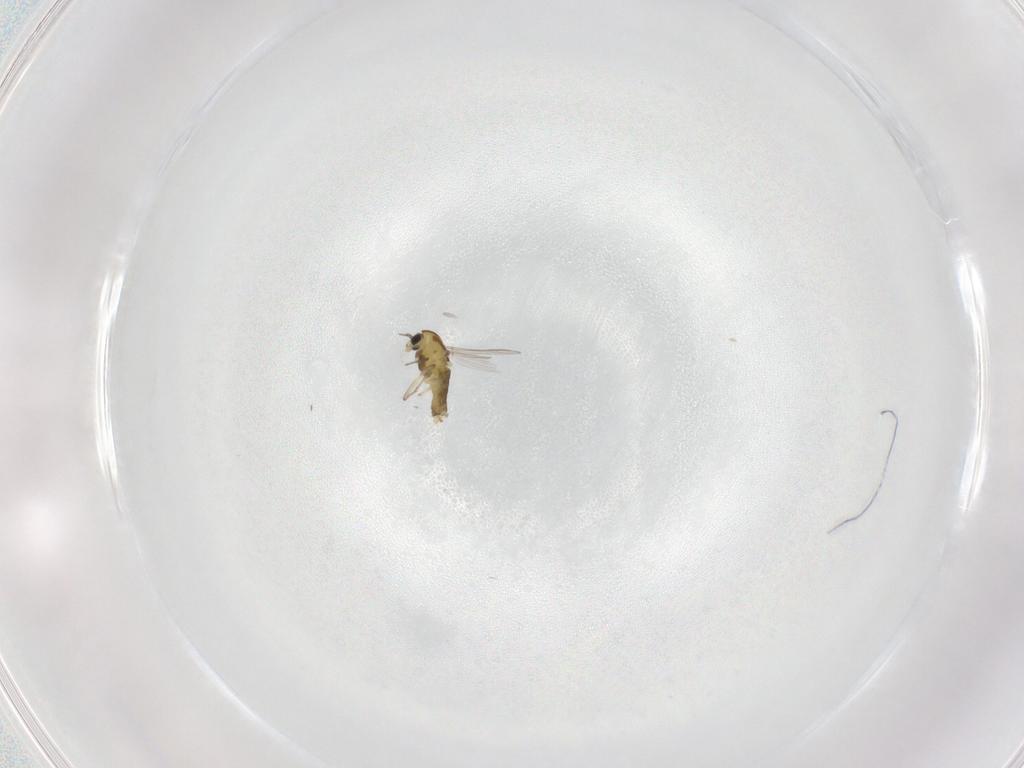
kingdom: Animalia
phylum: Arthropoda
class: Insecta
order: Diptera
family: Chironomidae
